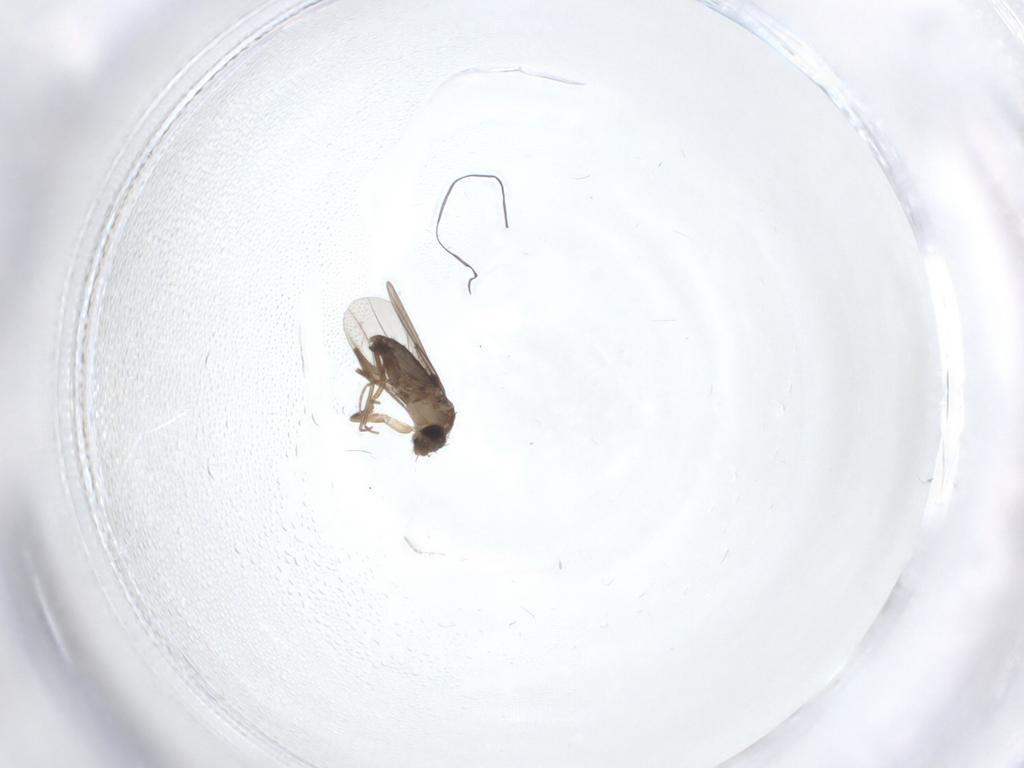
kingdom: Animalia
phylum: Arthropoda
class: Insecta
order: Diptera
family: Phoridae
